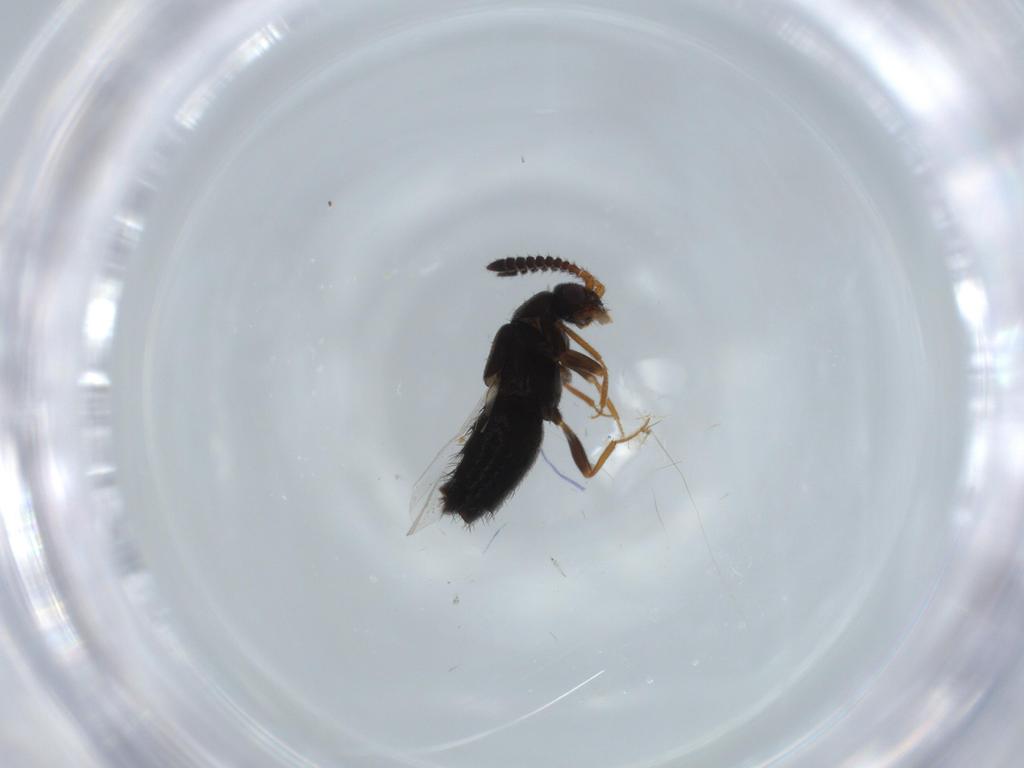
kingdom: Animalia
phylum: Arthropoda
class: Insecta
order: Coleoptera
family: Staphylinidae
